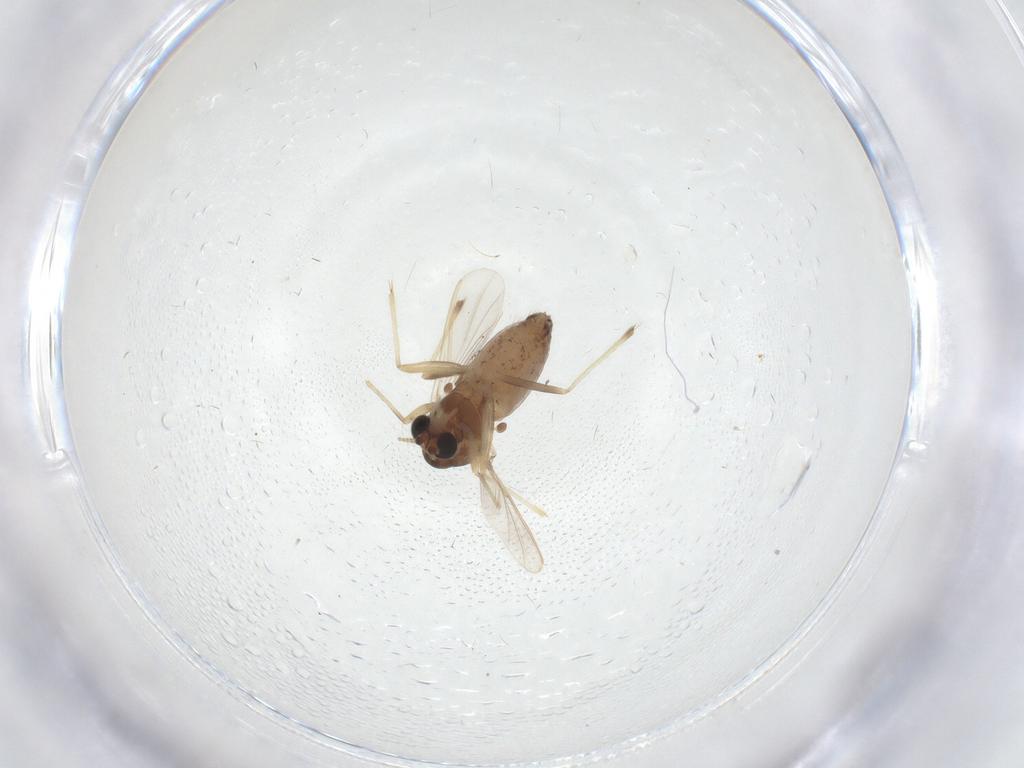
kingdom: Animalia
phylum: Arthropoda
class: Insecta
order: Diptera
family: Chironomidae
